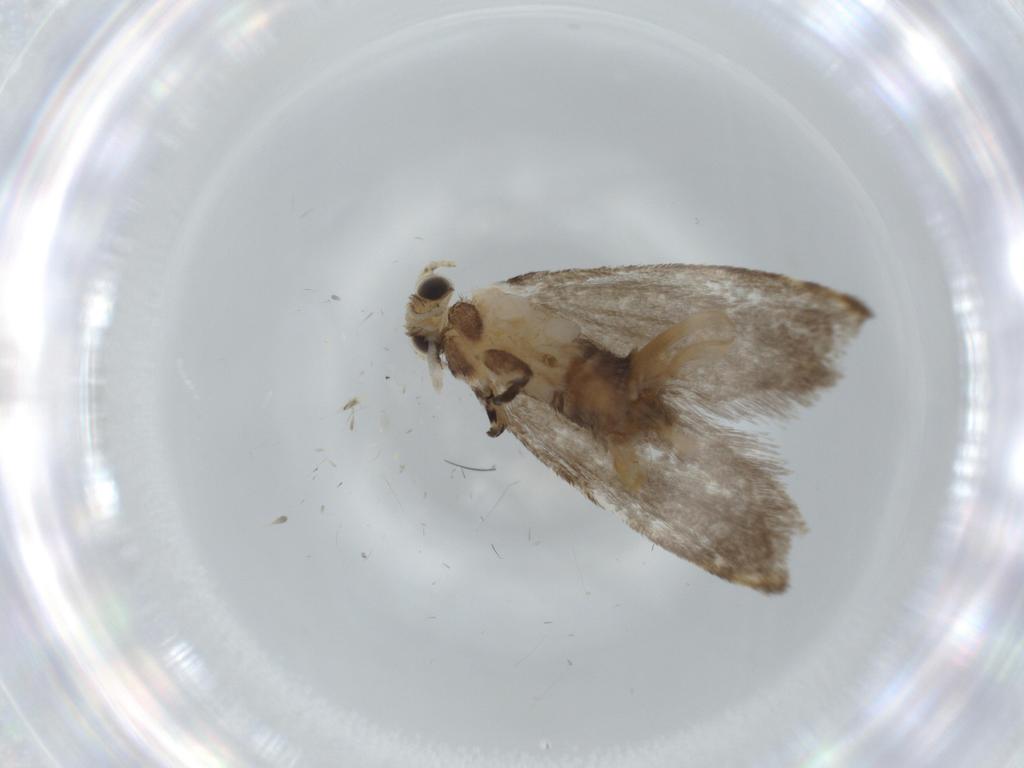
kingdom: Animalia
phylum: Arthropoda
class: Insecta
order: Lepidoptera
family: Tineidae
